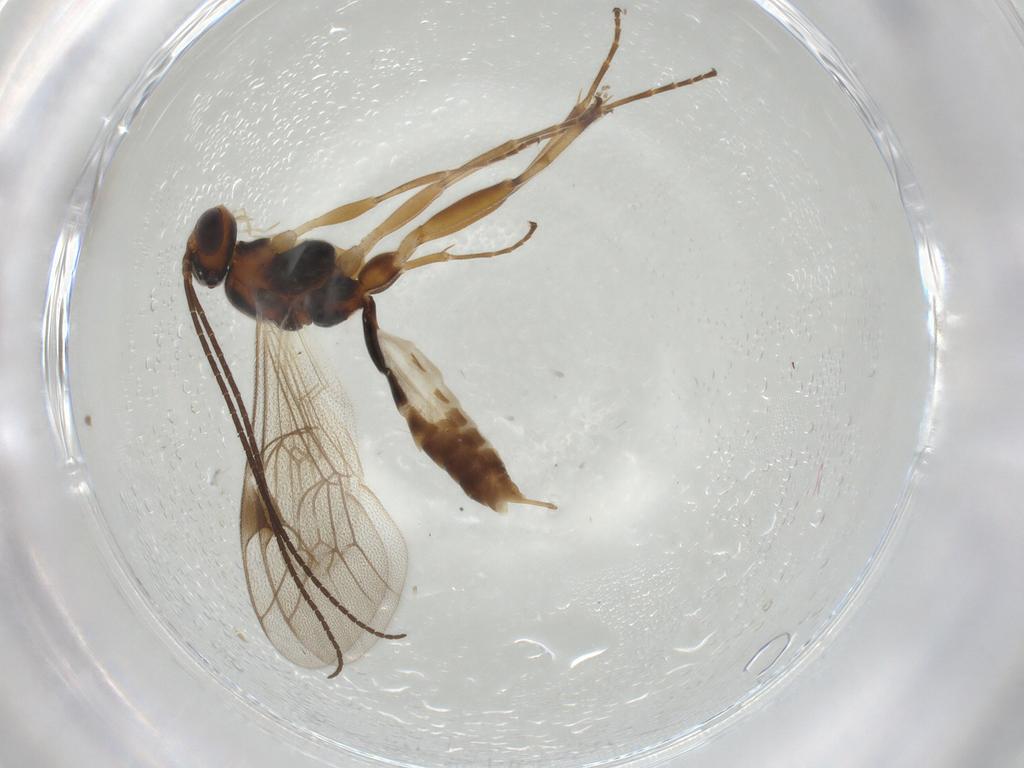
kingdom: Animalia
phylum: Arthropoda
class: Insecta
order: Hymenoptera
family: Ichneumonidae
